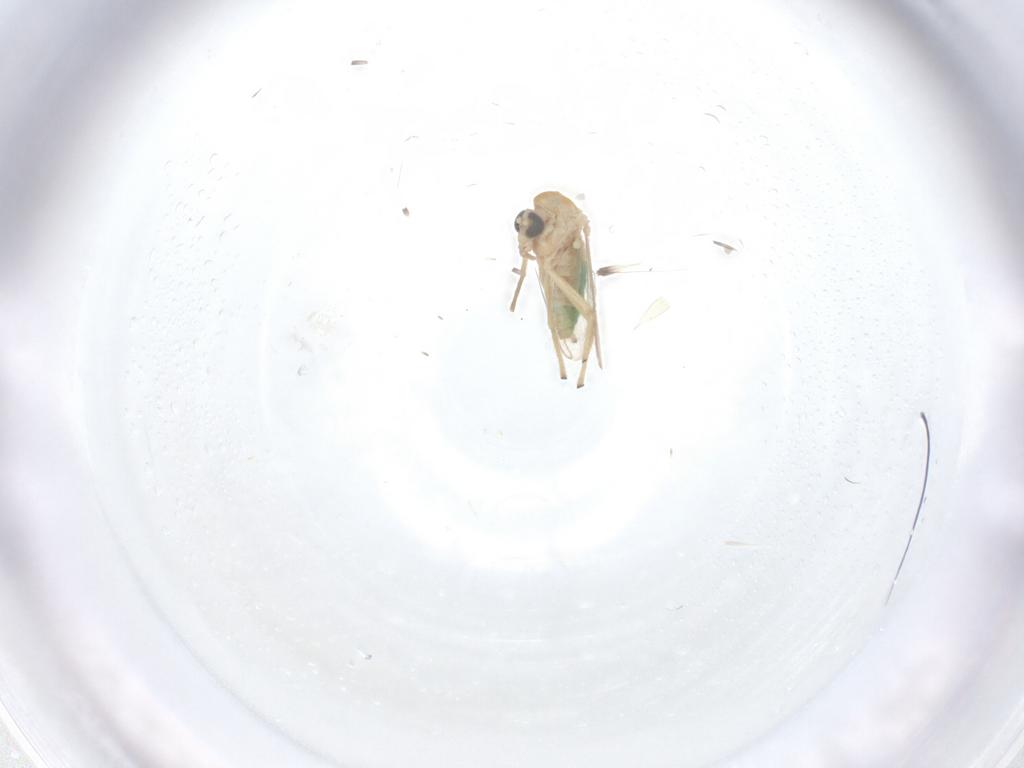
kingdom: Animalia
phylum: Arthropoda
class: Insecta
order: Diptera
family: Chironomidae
